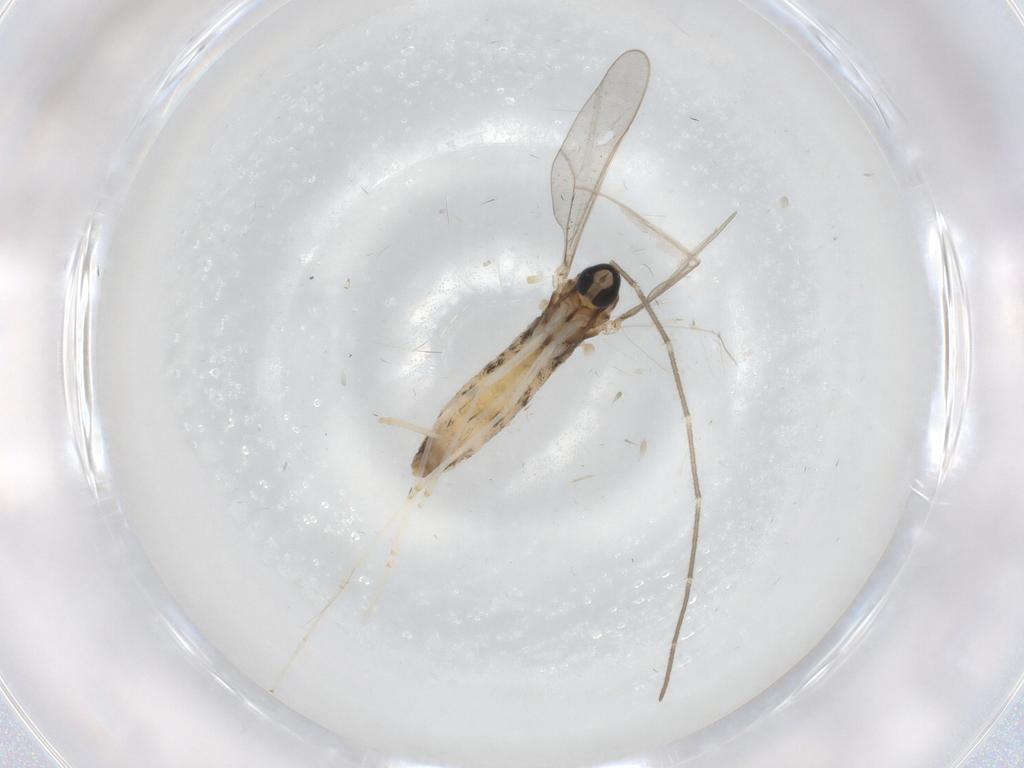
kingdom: Animalia
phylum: Arthropoda
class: Insecta
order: Diptera
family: Cecidomyiidae
